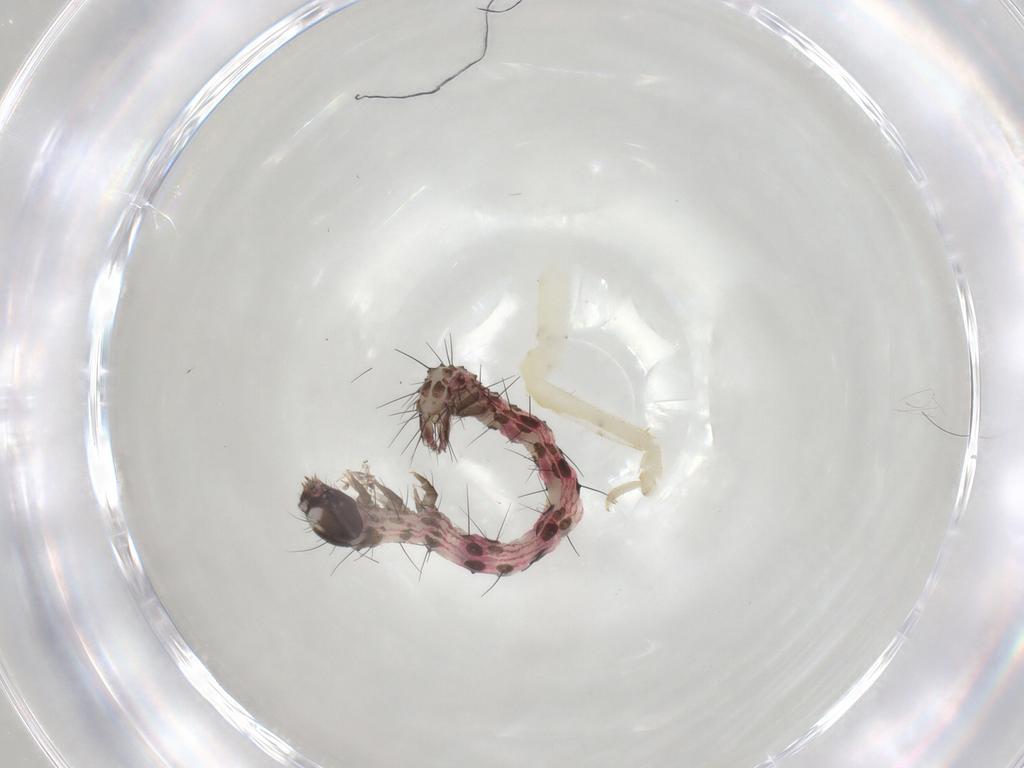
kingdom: Animalia
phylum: Arthropoda
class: Insecta
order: Orthoptera
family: Gryllidae
